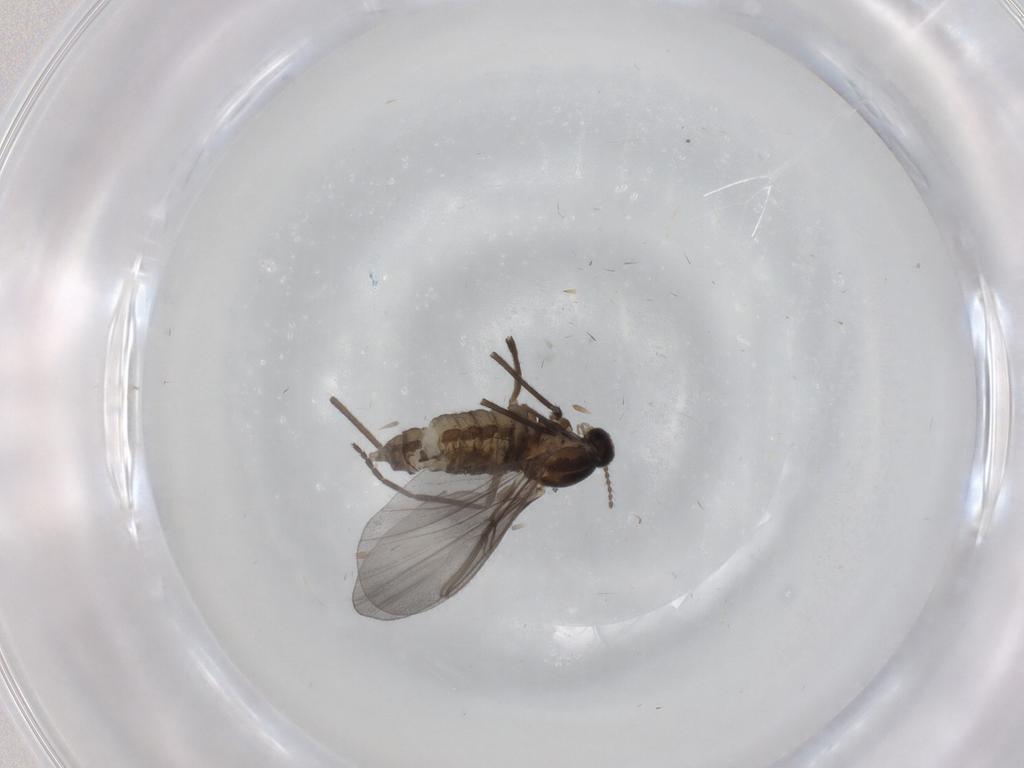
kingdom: Animalia
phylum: Arthropoda
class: Insecta
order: Diptera
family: Cecidomyiidae
